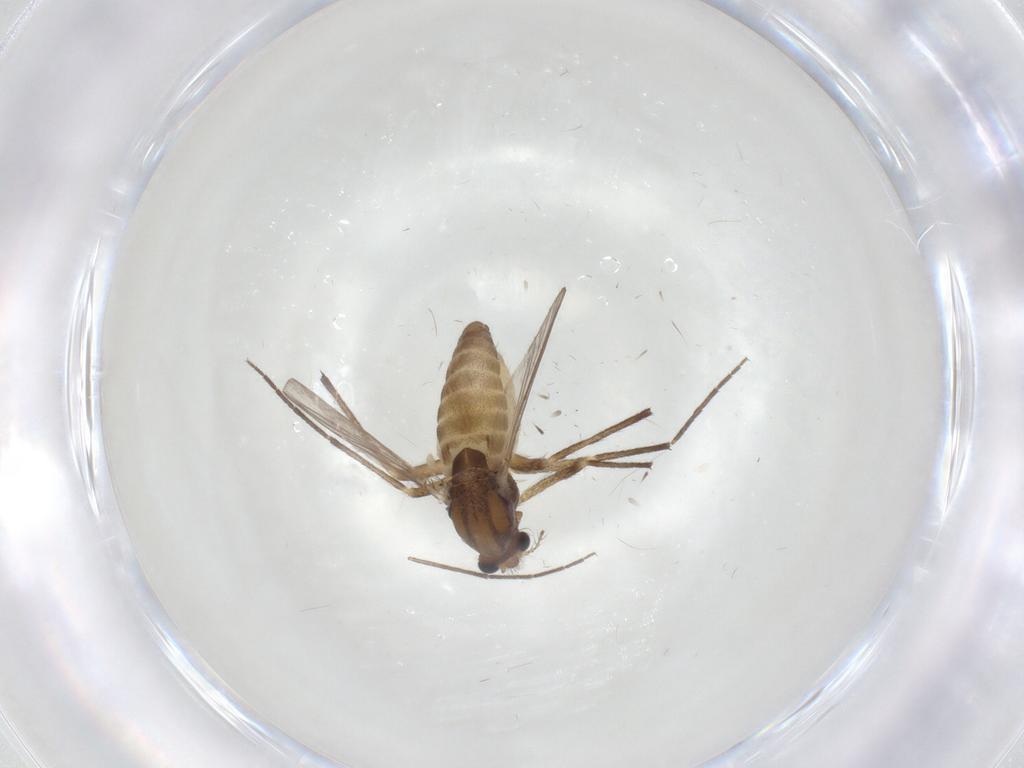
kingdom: Animalia
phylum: Arthropoda
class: Insecta
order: Diptera
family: Chironomidae
